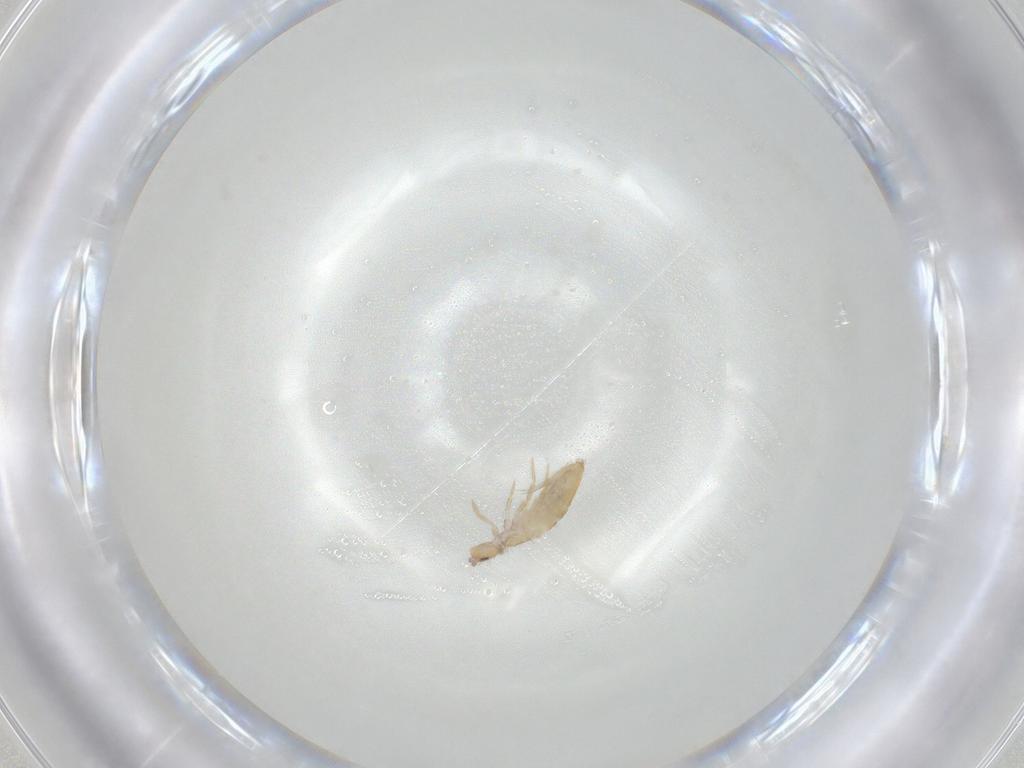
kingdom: Animalia
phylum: Arthropoda
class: Collembola
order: Entomobryomorpha
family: Entomobryidae
